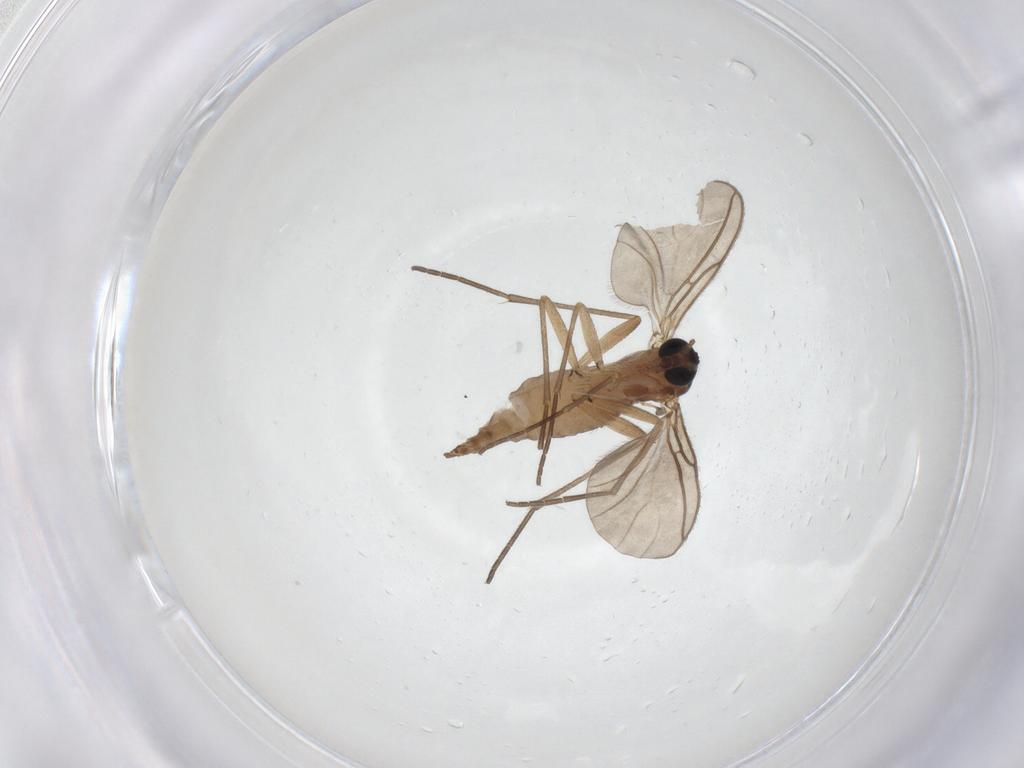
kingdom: Animalia
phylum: Arthropoda
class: Insecta
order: Diptera
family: Sciaridae
